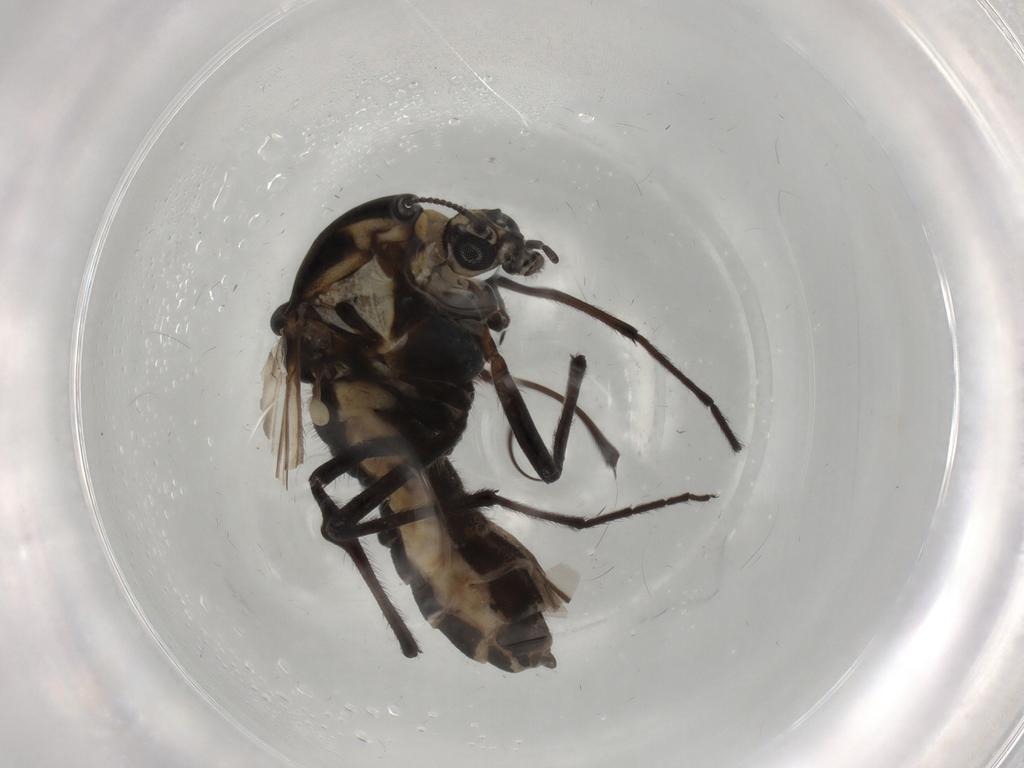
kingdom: Animalia
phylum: Arthropoda
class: Insecta
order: Diptera
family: Chironomidae
